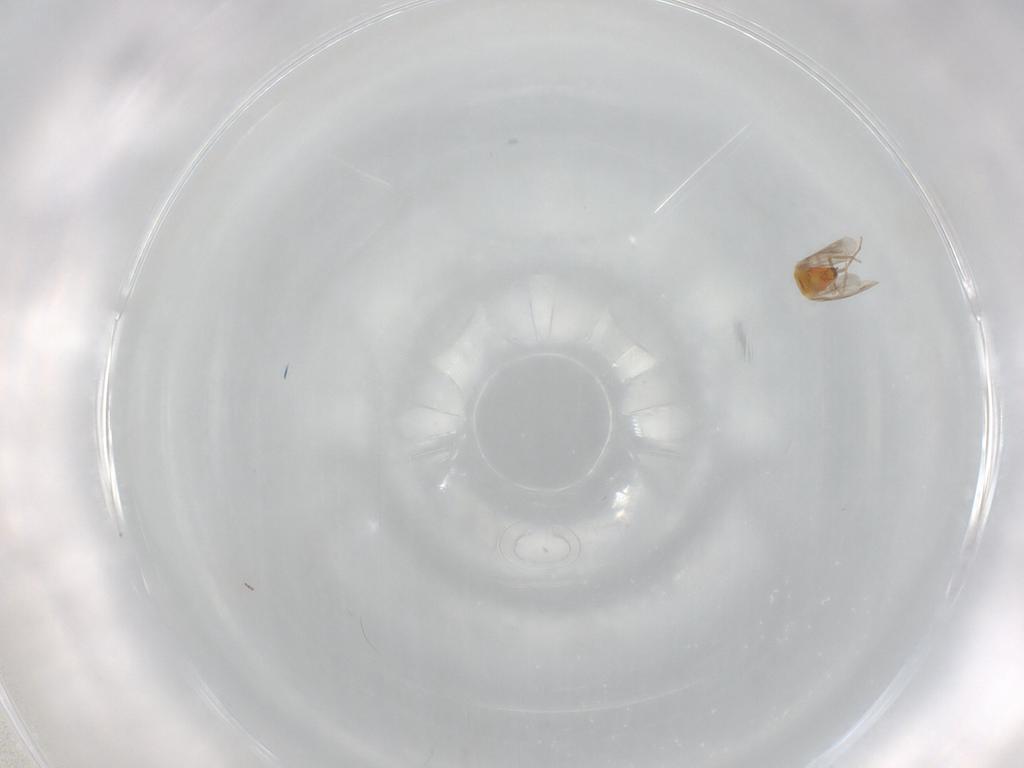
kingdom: Animalia
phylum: Arthropoda
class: Insecta
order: Hemiptera
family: Aleyrodidae
